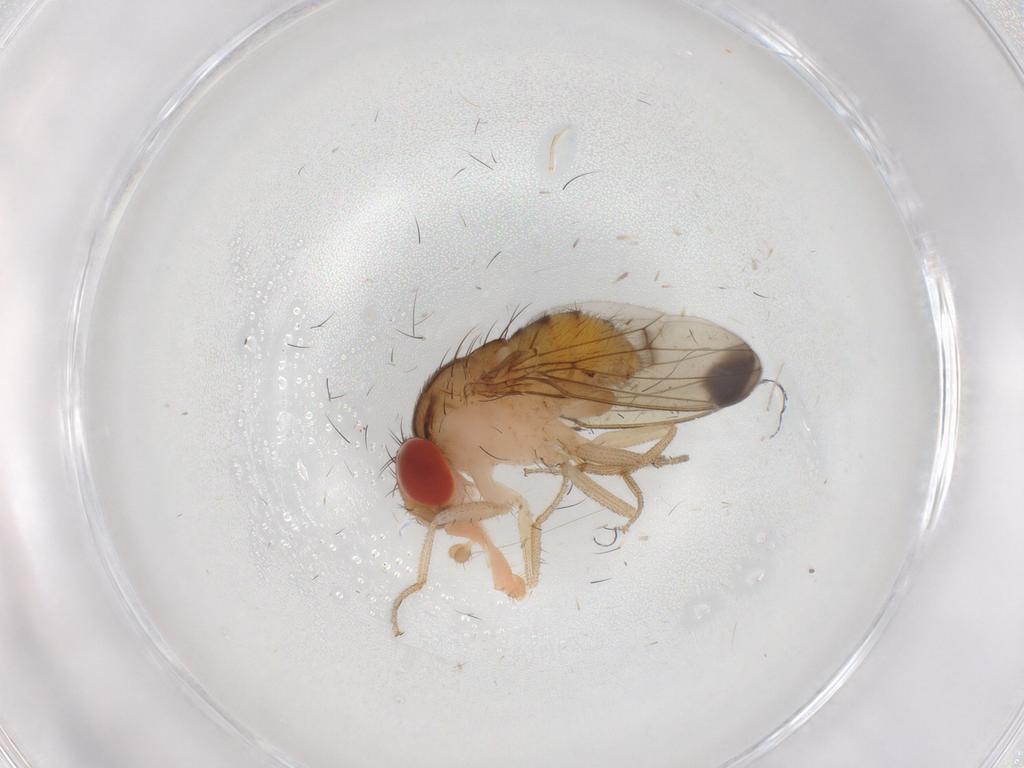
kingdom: Animalia
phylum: Arthropoda
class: Insecta
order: Diptera
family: Drosophilidae
